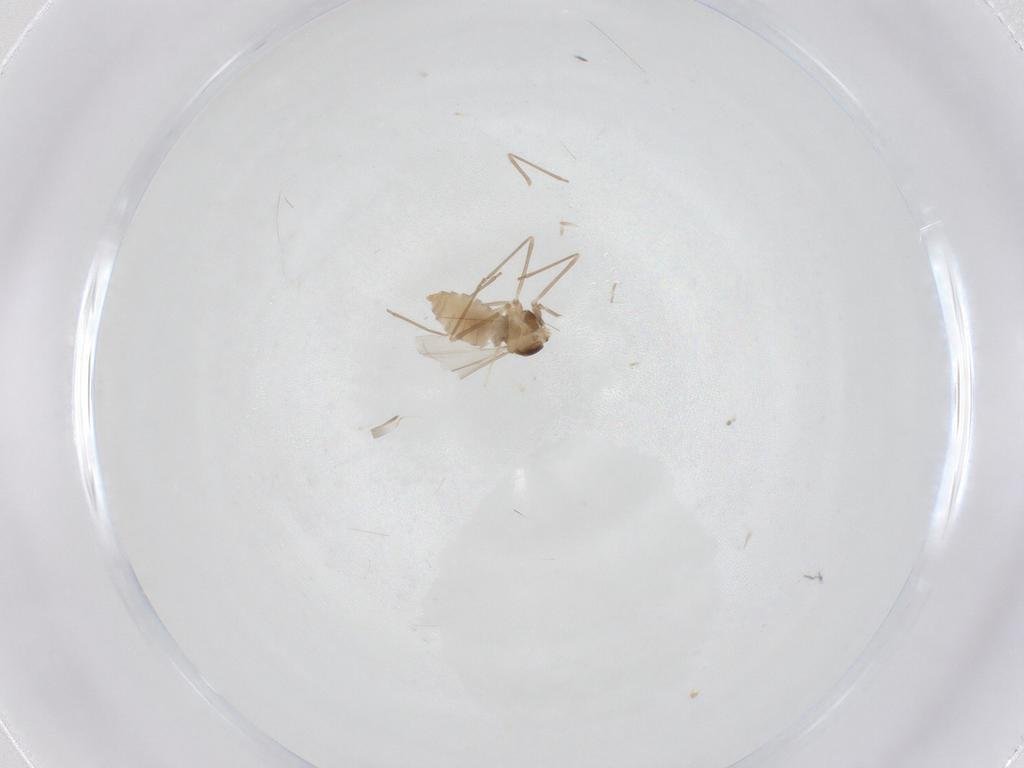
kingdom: Animalia
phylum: Arthropoda
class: Insecta
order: Diptera
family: Cecidomyiidae
